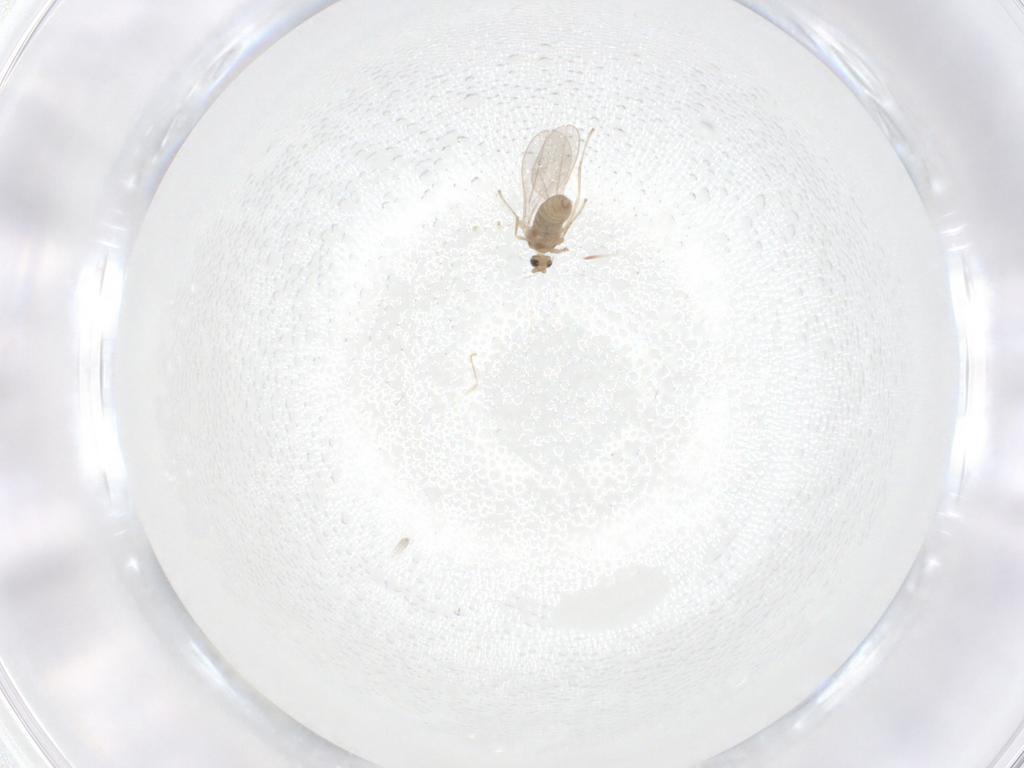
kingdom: Animalia
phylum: Arthropoda
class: Insecta
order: Diptera
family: Cecidomyiidae
